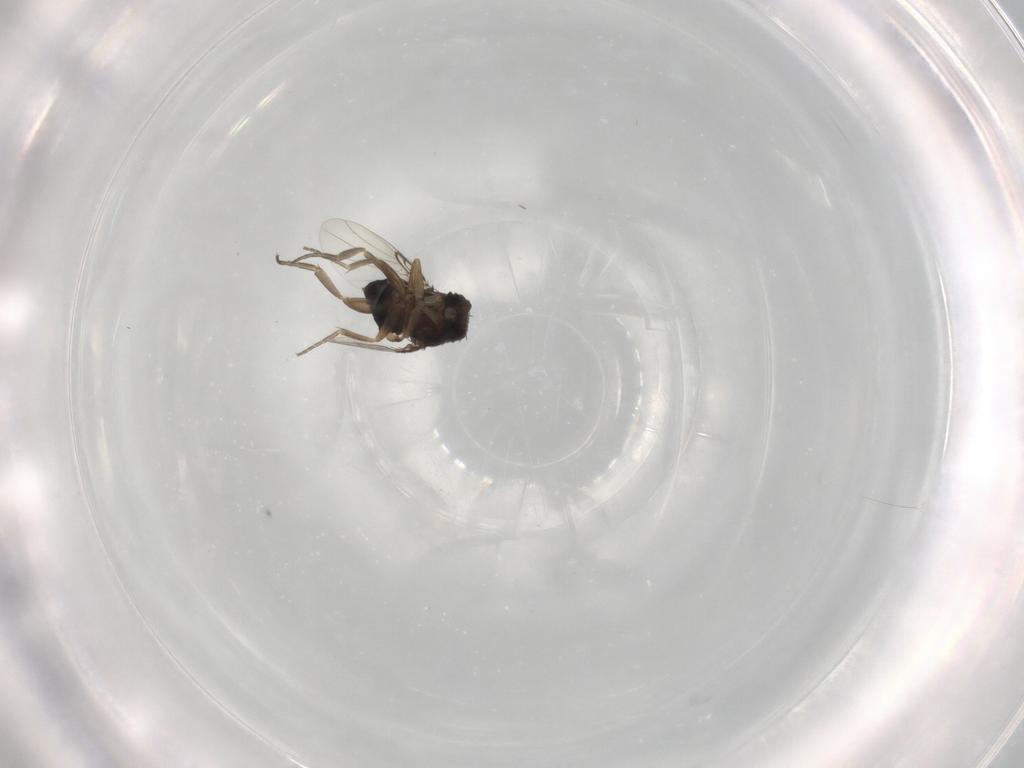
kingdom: Animalia
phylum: Arthropoda
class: Insecta
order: Diptera
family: Phoridae
